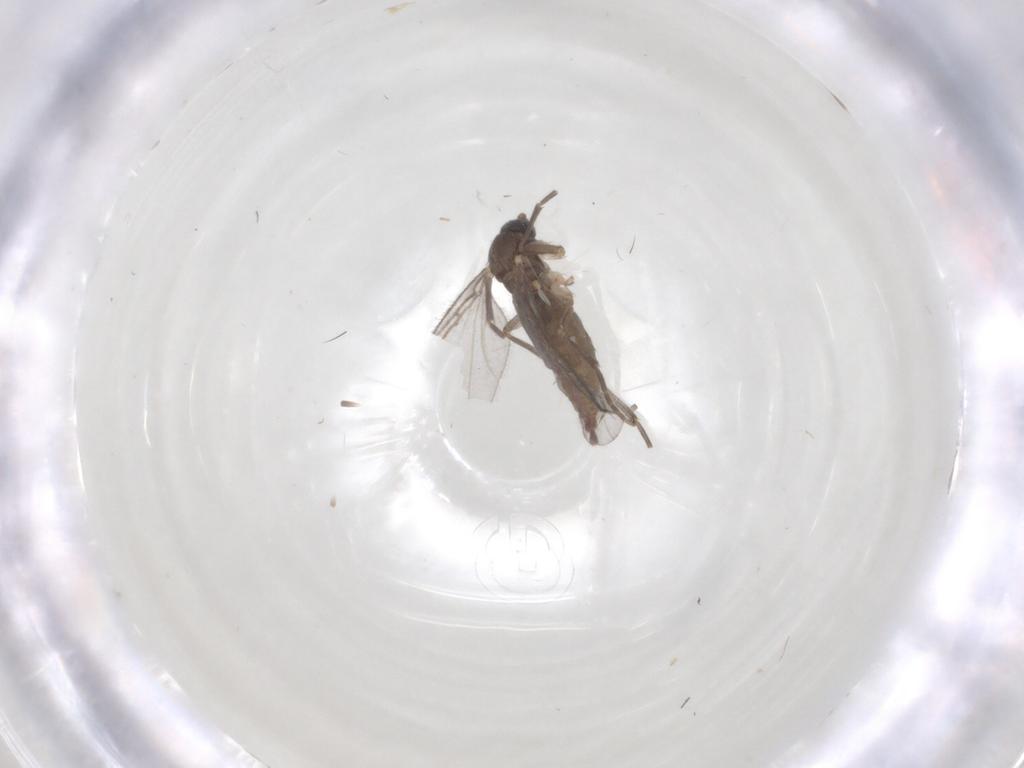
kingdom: Animalia
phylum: Arthropoda
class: Insecta
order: Diptera
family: Sciaridae
